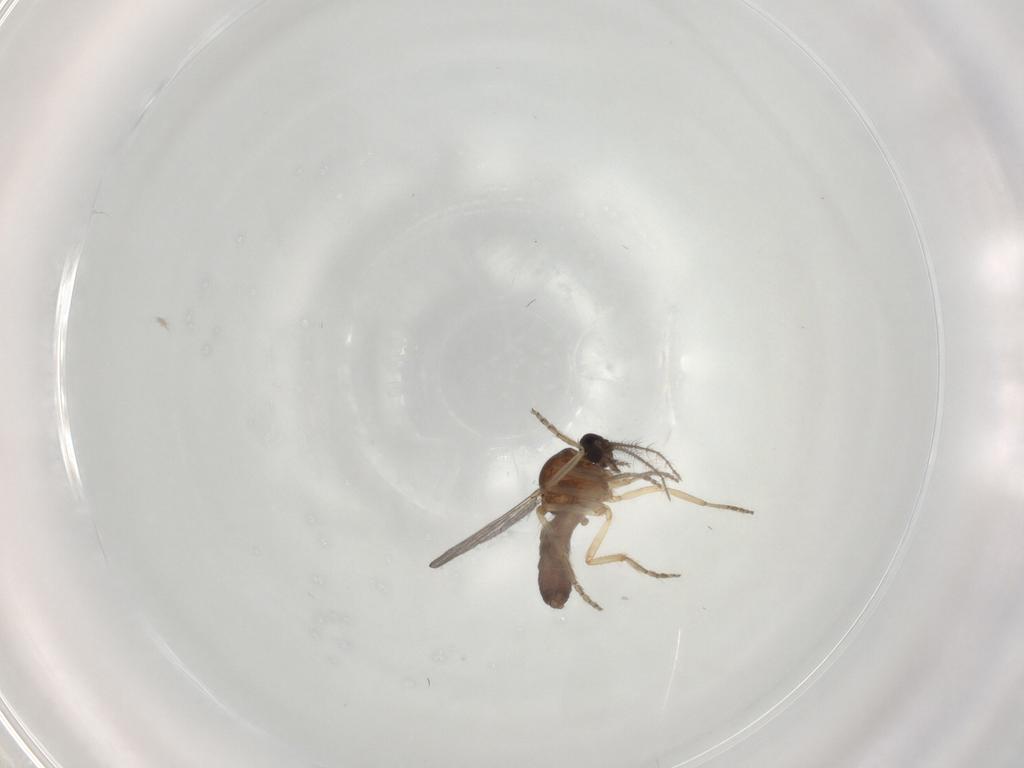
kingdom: Animalia
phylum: Arthropoda
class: Insecta
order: Diptera
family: Ceratopogonidae
